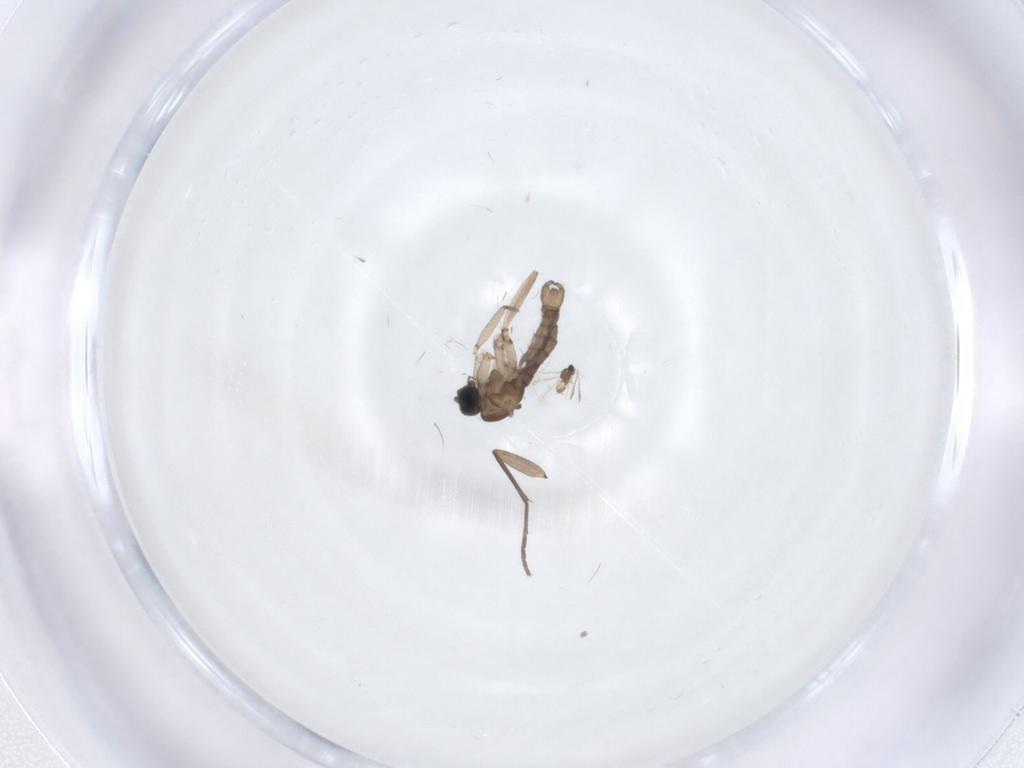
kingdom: Animalia
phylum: Arthropoda
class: Insecta
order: Diptera
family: Sciaridae
